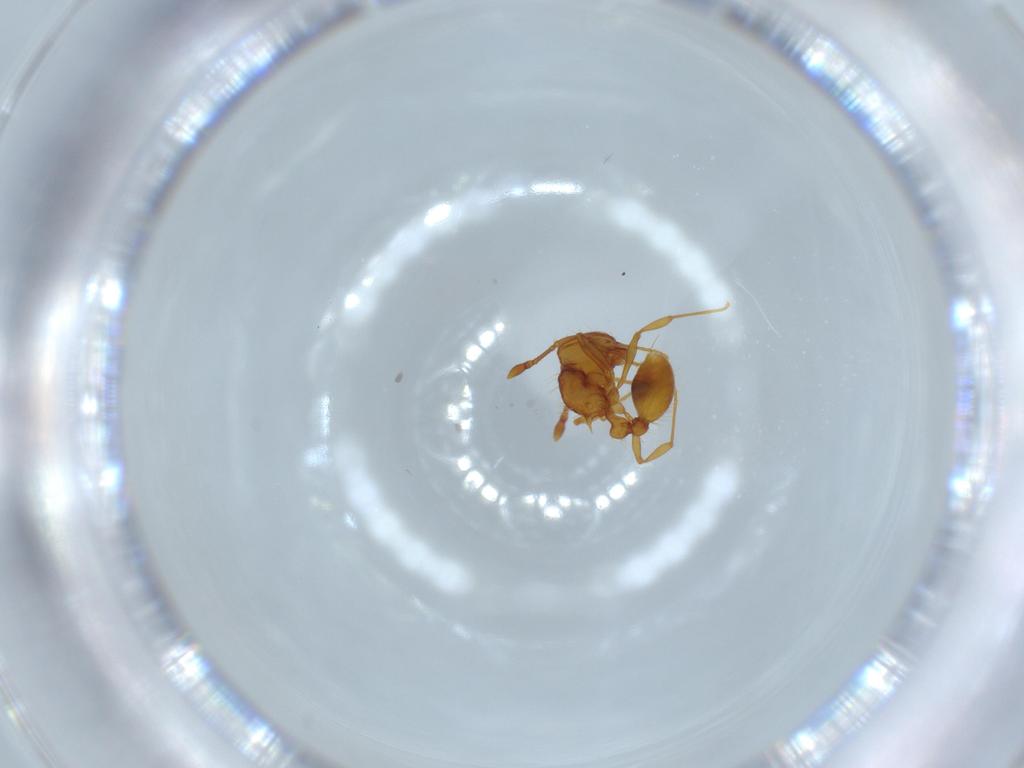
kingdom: Animalia
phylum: Arthropoda
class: Insecta
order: Hymenoptera
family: Formicidae
